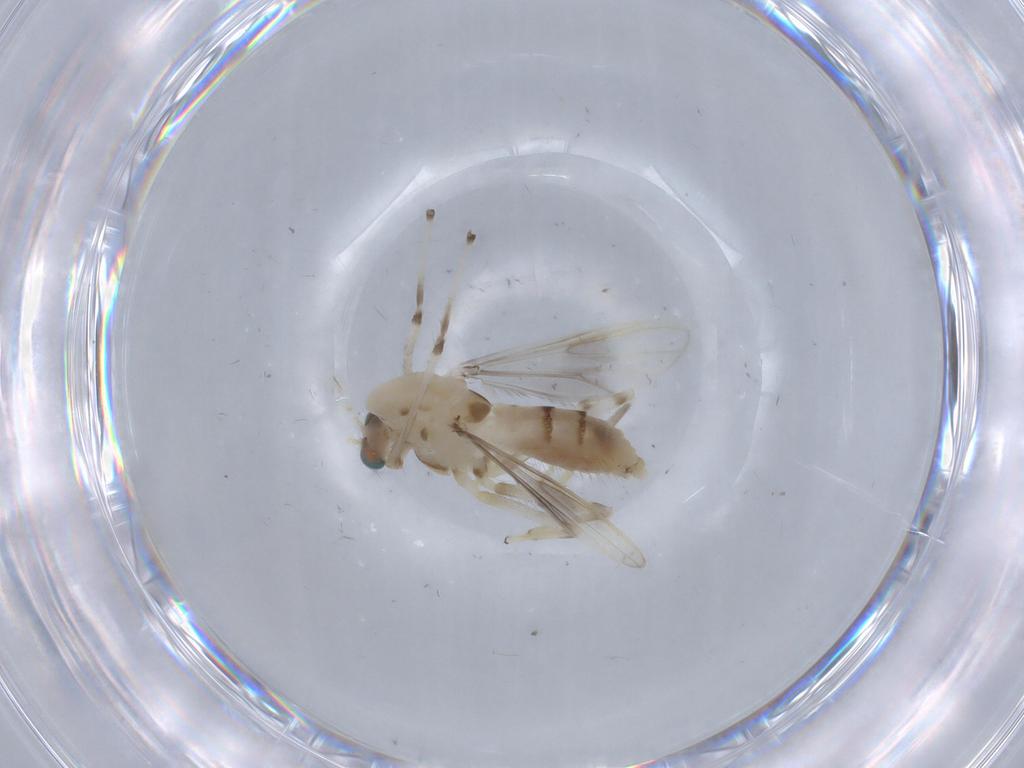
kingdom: Animalia
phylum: Arthropoda
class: Insecta
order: Diptera
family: Chironomidae
